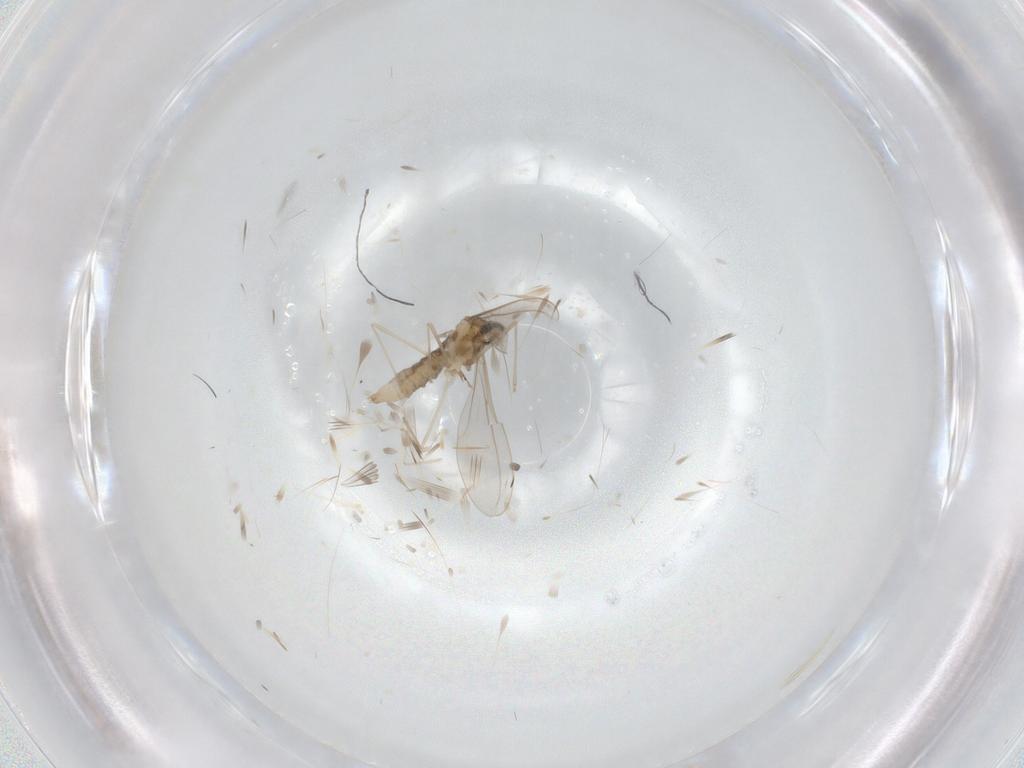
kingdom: Animalia
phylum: Arthropoda
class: Insecta
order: Diptera
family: Cecidomyiidae
